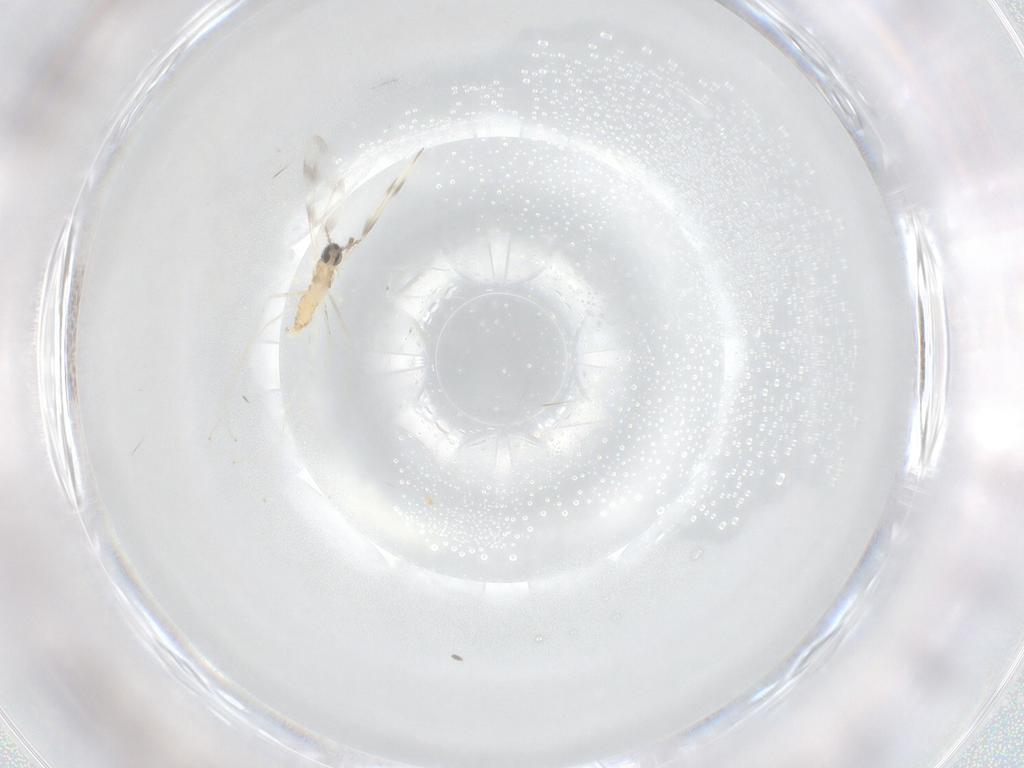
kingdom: Animalia
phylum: Arthropoda
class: Insecta
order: Diptera
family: Cecidomyiidae
